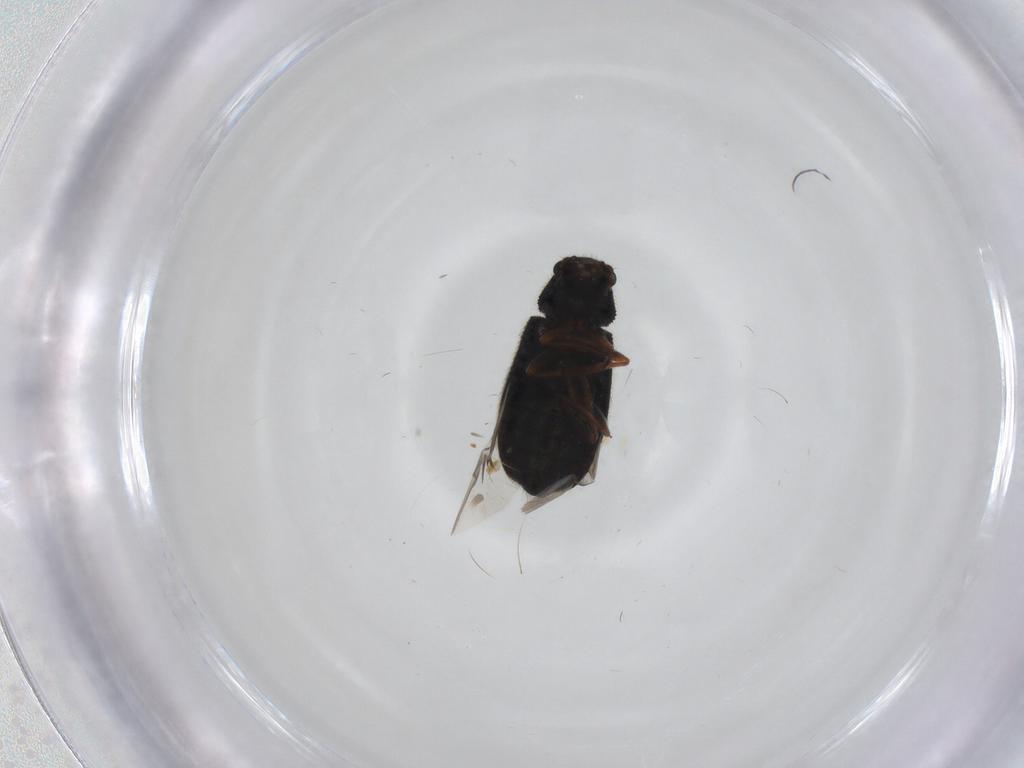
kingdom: Animalia
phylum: Arthropoda
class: Insecta
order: Coleoptera
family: Melyridae
